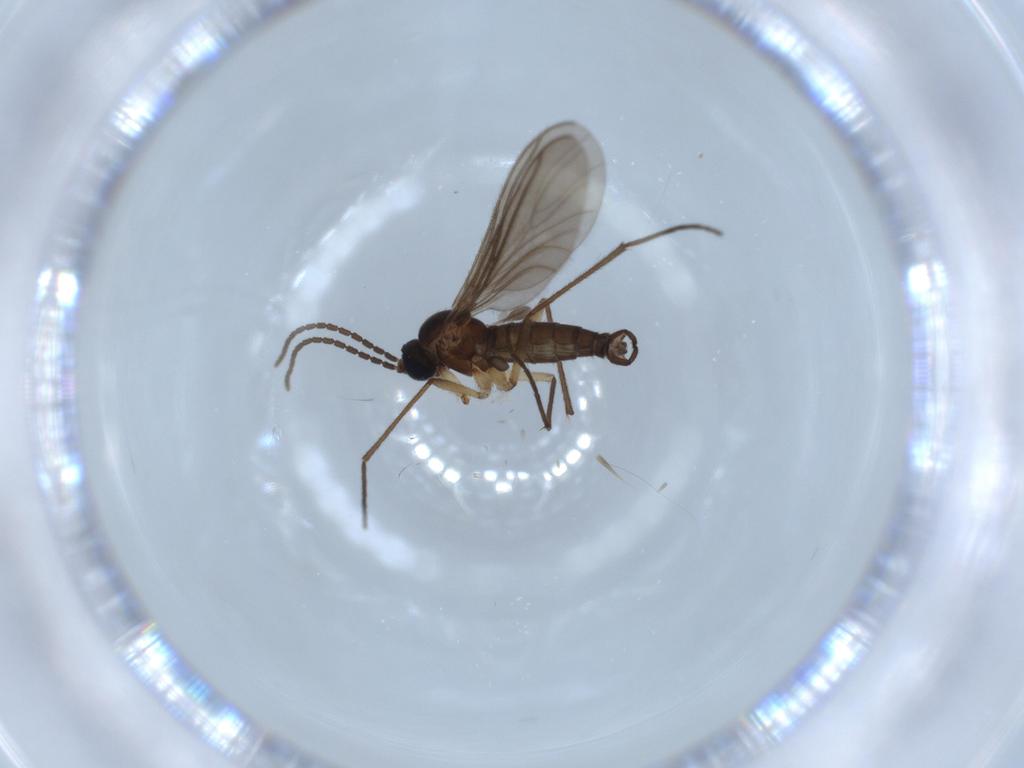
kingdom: Animalia
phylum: Arthropoda
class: Insecta
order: Diptera
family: Sciaridae
